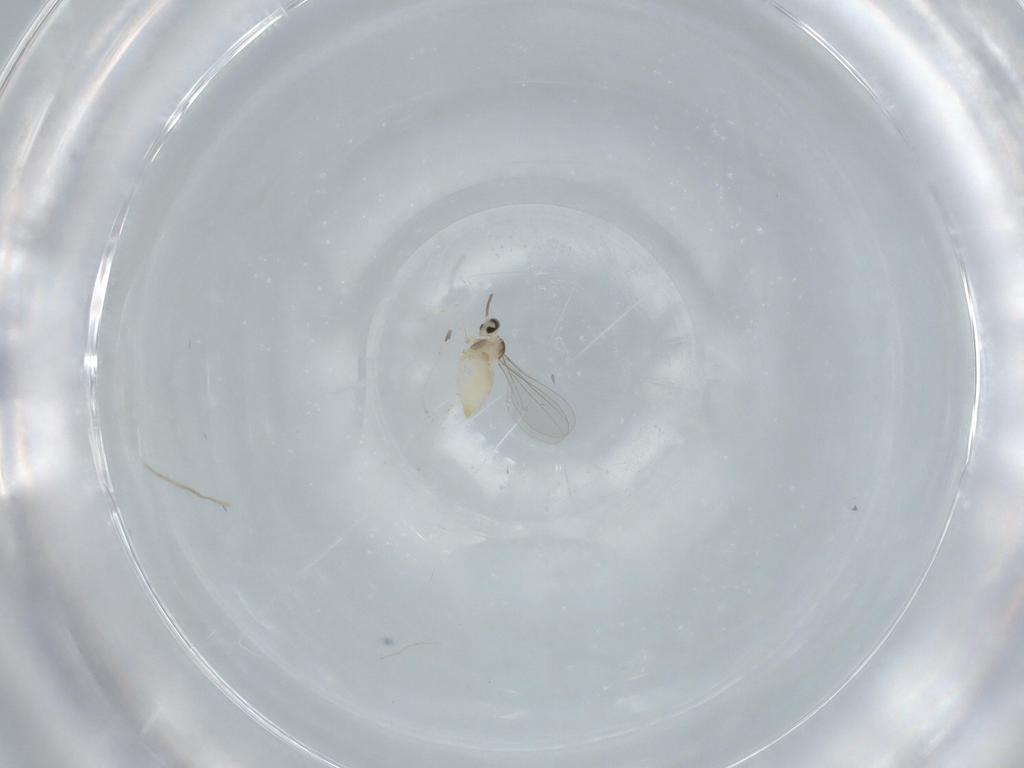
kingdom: Animalia
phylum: Arthropoda
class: Insecta
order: Diptera
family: Cecidomyiidae
